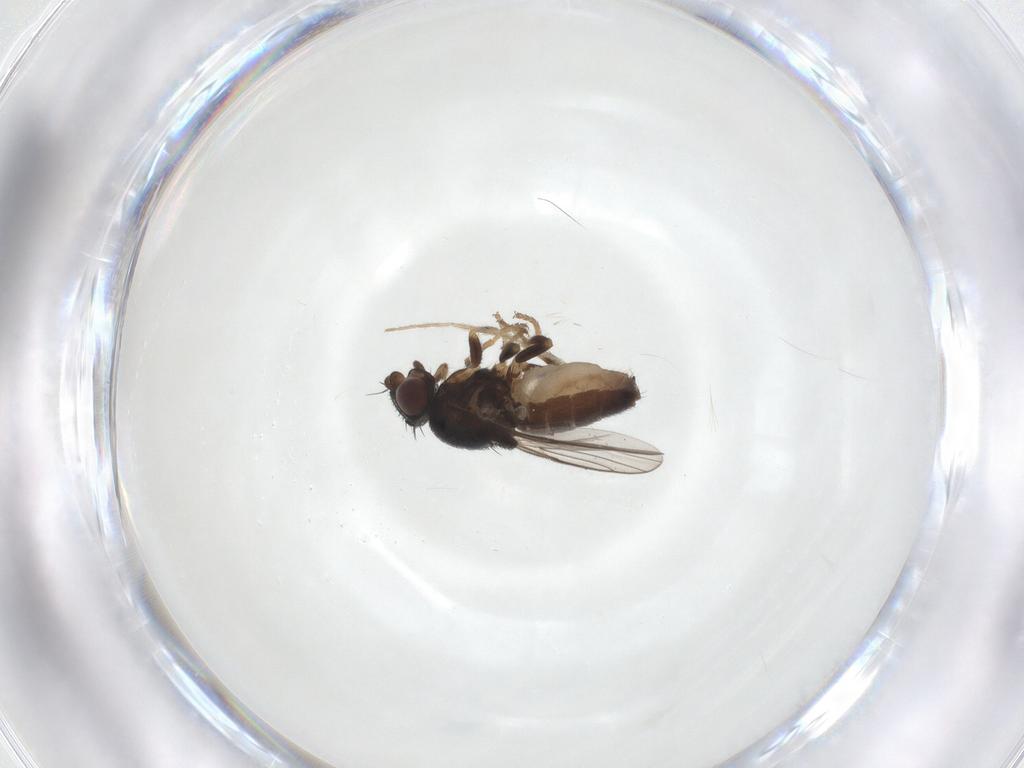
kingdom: Animalia
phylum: Arthropoda
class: Insecta
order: Diptera
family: Chloropidae
